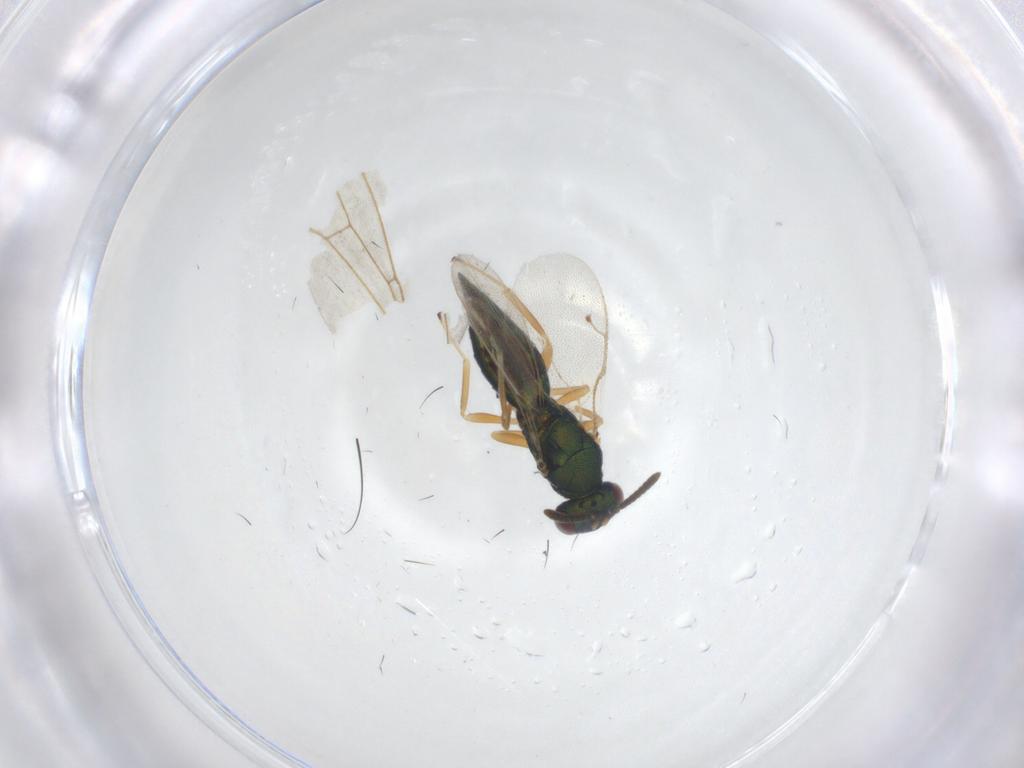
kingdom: Animalia
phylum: Arthropoda
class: Insecta
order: Hymenoptera
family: Pteromalidae
